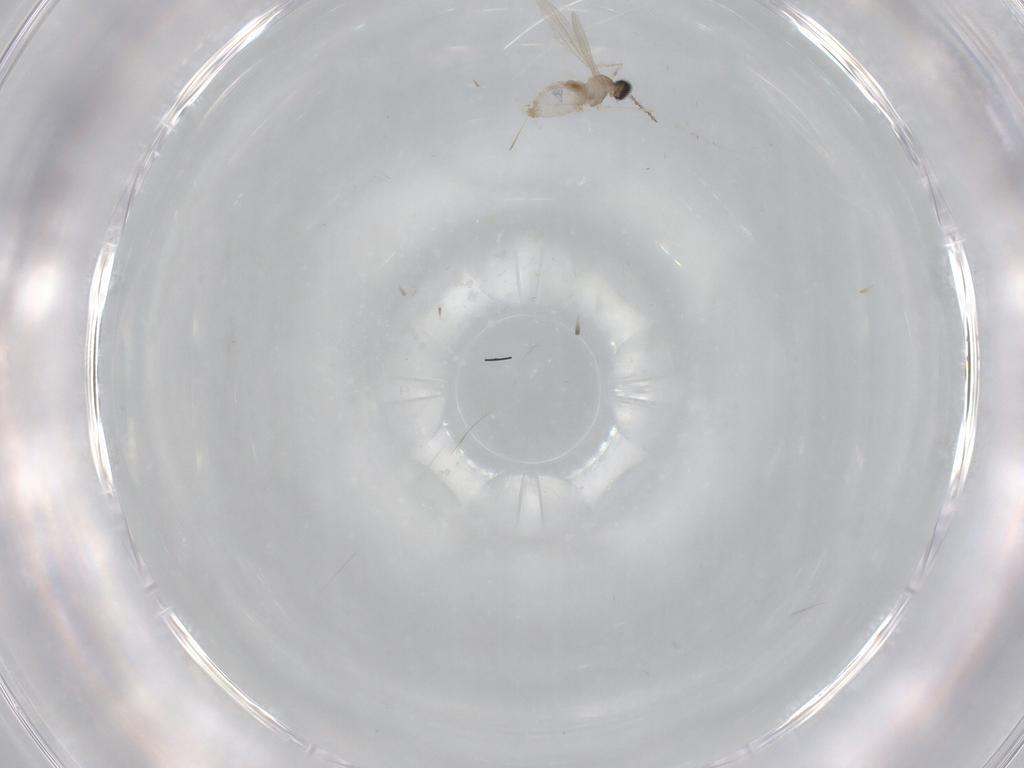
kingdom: Animalia
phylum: Arthropoda
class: Insecta
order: Diptera
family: Cecidomyiidae
